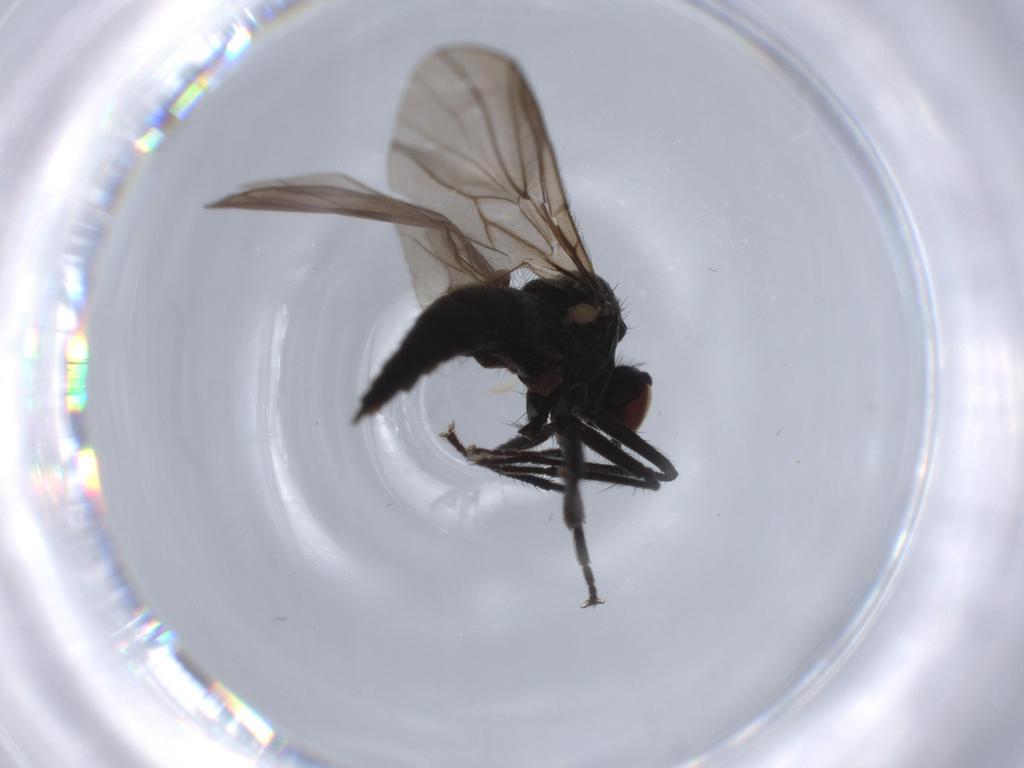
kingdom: Animalia
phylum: Arthropoda
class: Insecta
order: Diptera
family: Hybotidae
